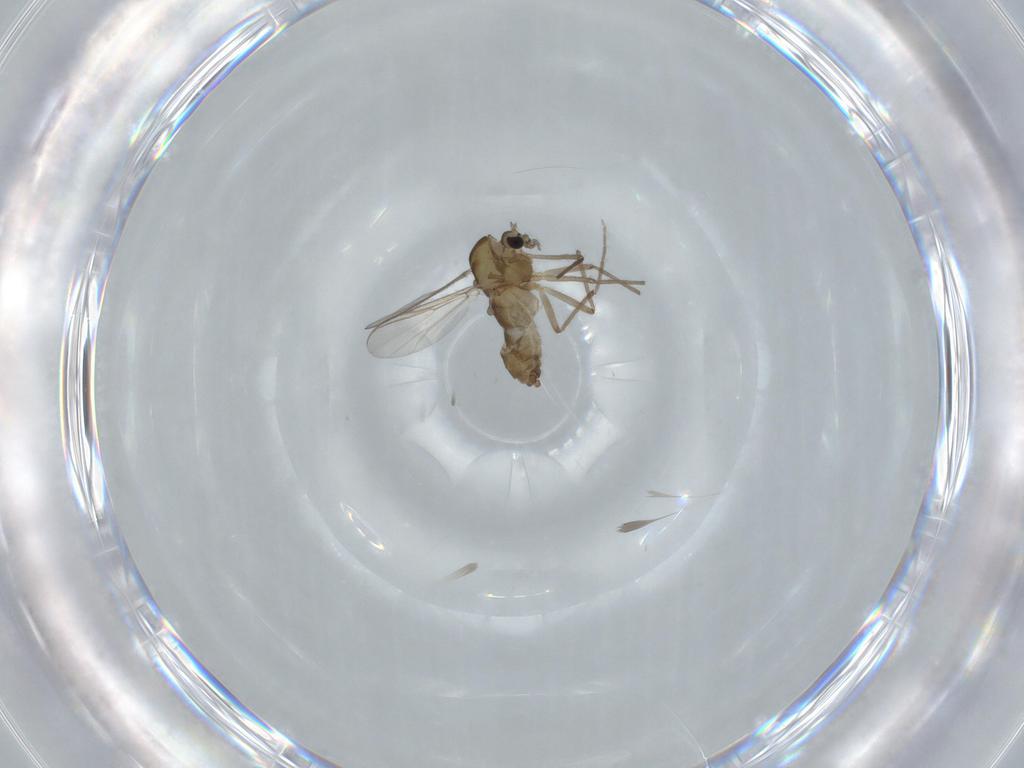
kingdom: Animalia
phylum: Arthropoda
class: Insecta
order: Diptera
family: Chironomidae
